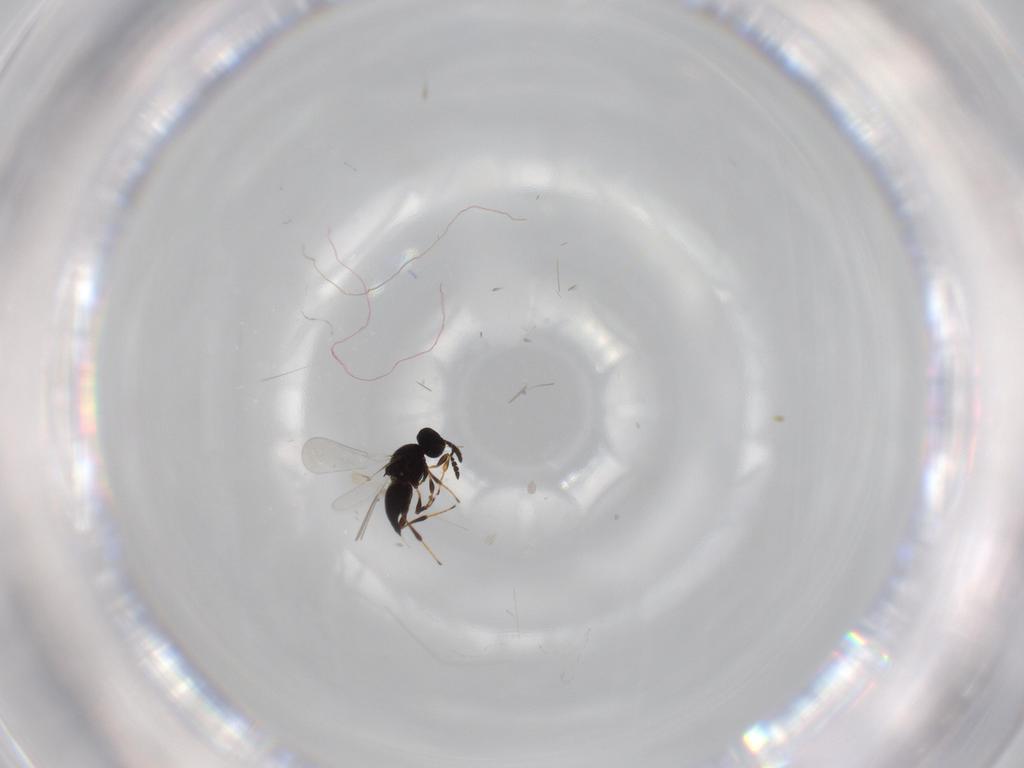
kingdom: Animalia
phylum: Arthropoda
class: Insecta
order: Hymenoptera
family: Platygastridae
